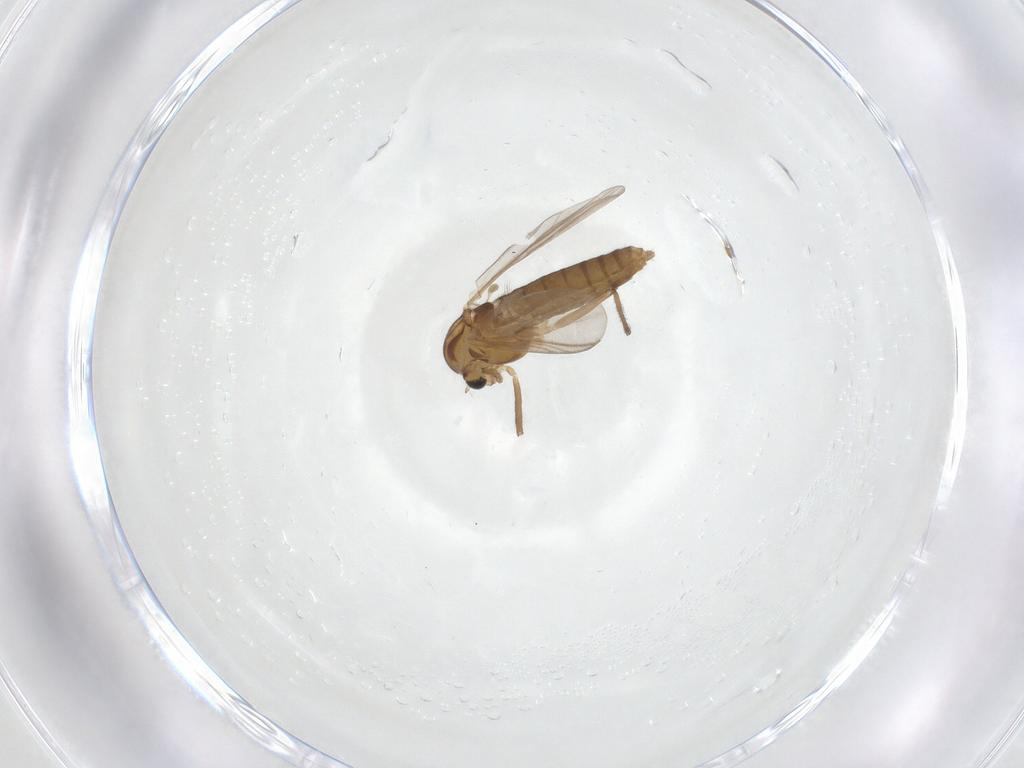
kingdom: Animalia
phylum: Arthropoda
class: Insecta
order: Diptera
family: Chironomidae
